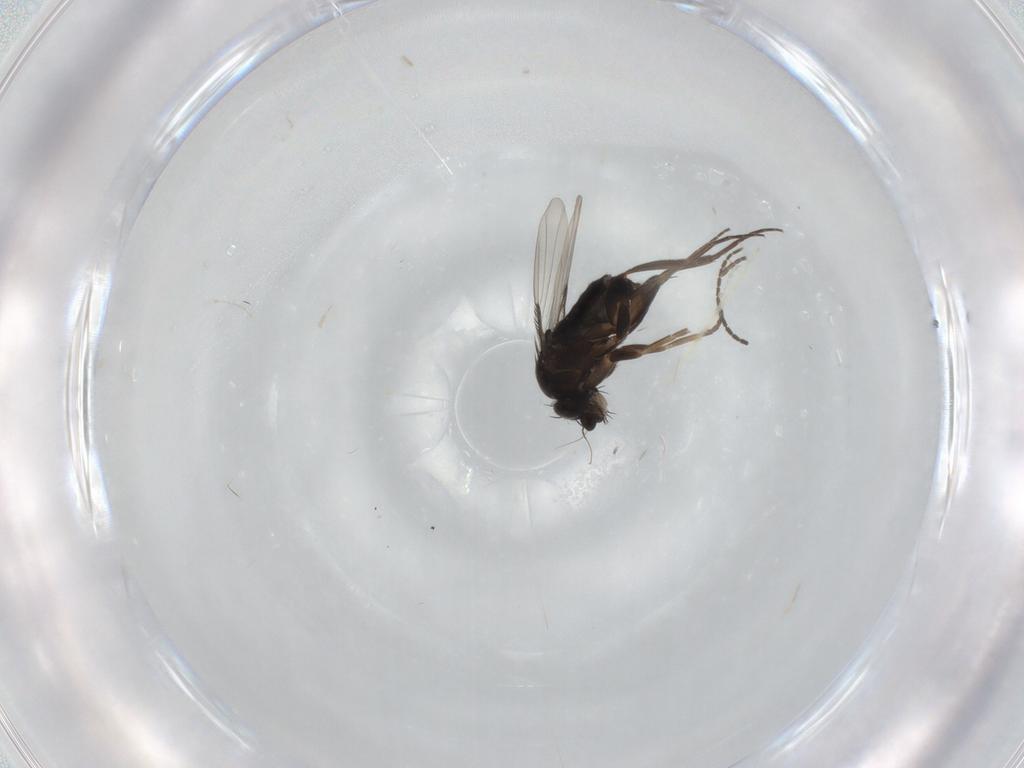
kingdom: Animalia
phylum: Arthropoda
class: Insecta
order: Diptera
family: Phoridae
